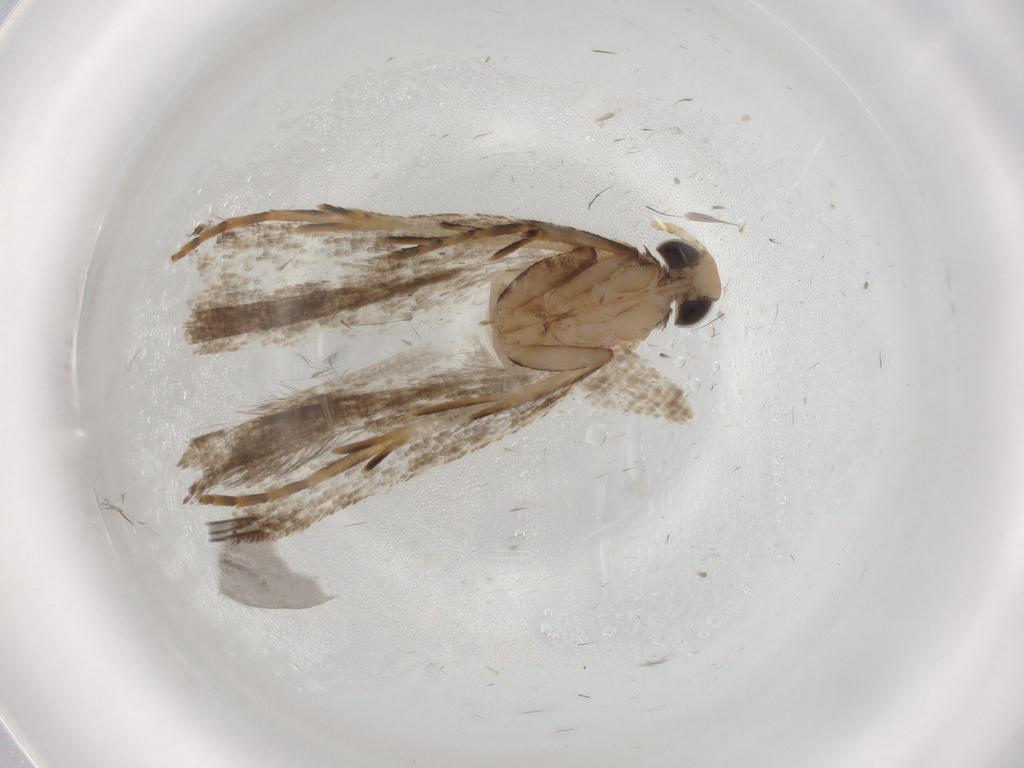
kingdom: Animalia
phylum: Arthropoda
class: Insecta
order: Lepidoptera
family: Gelechiidae
